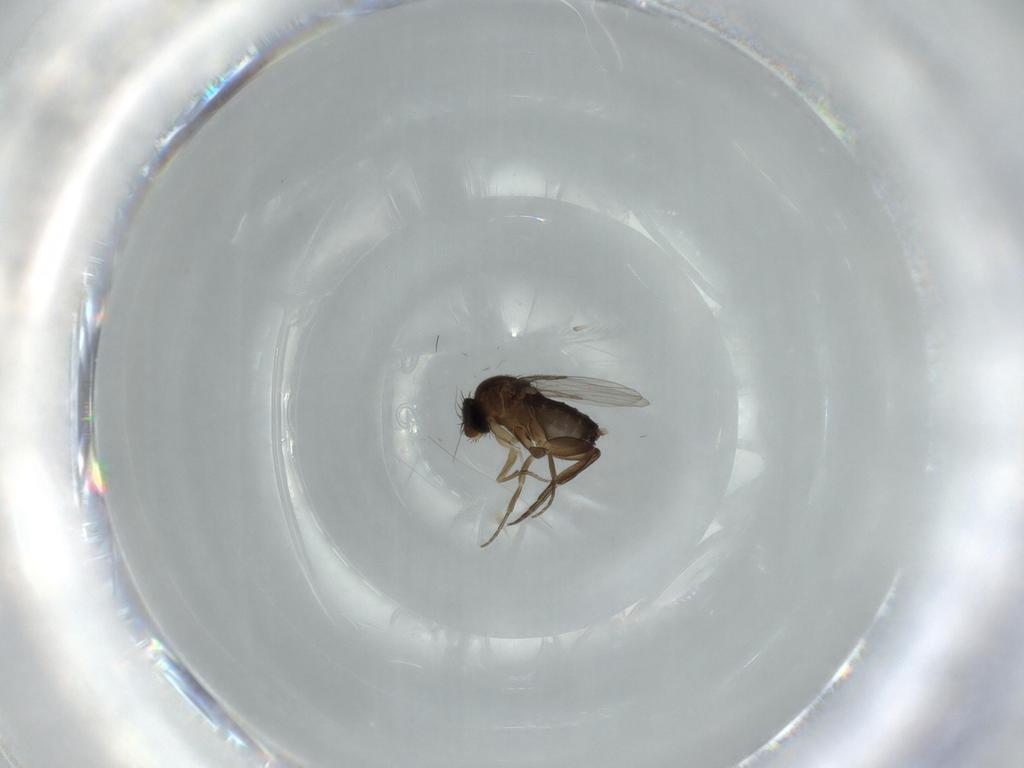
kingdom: Animalia
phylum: Arthropoda
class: Insecta
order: Diptera
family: Phoridae
